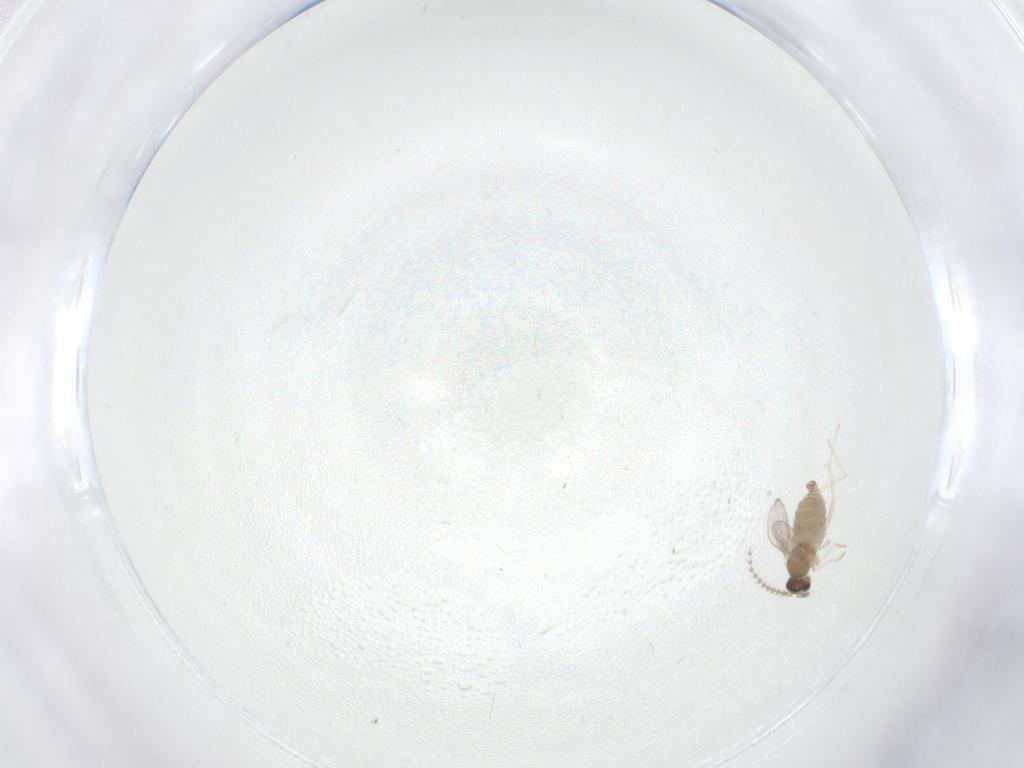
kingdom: Animalia
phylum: Arthropoda
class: Insecta
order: Diptera
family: Cecidomyiidae
